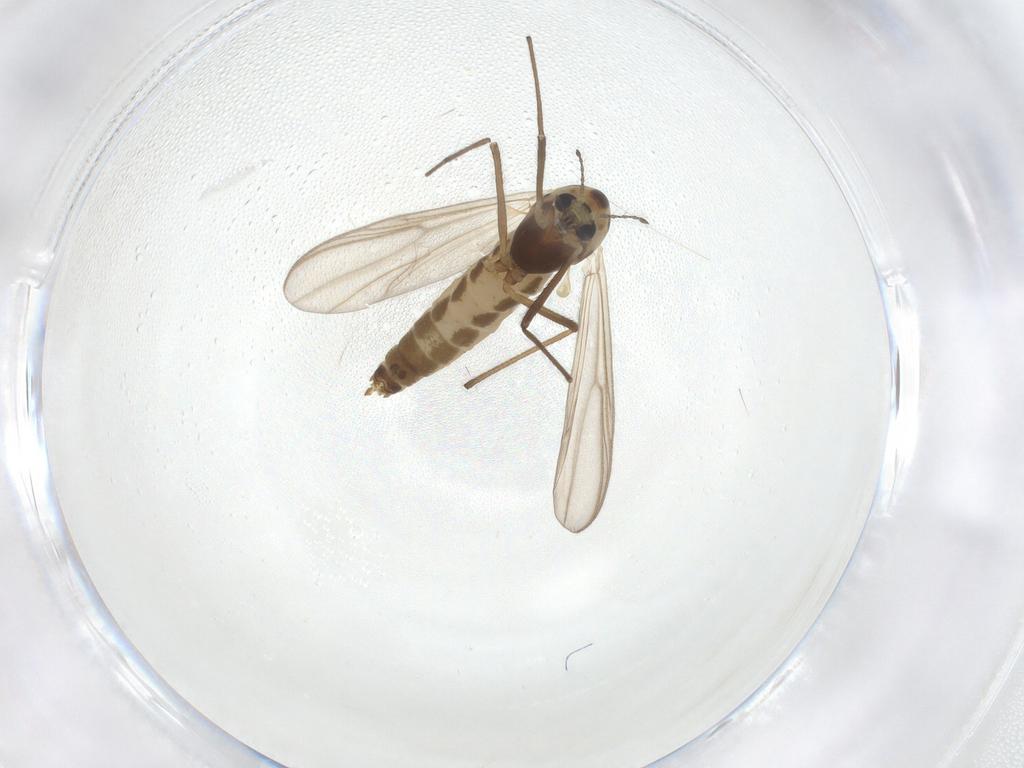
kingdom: Animalia
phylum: Arthropoda
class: Insecta
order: Diptera
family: Chironomidae
